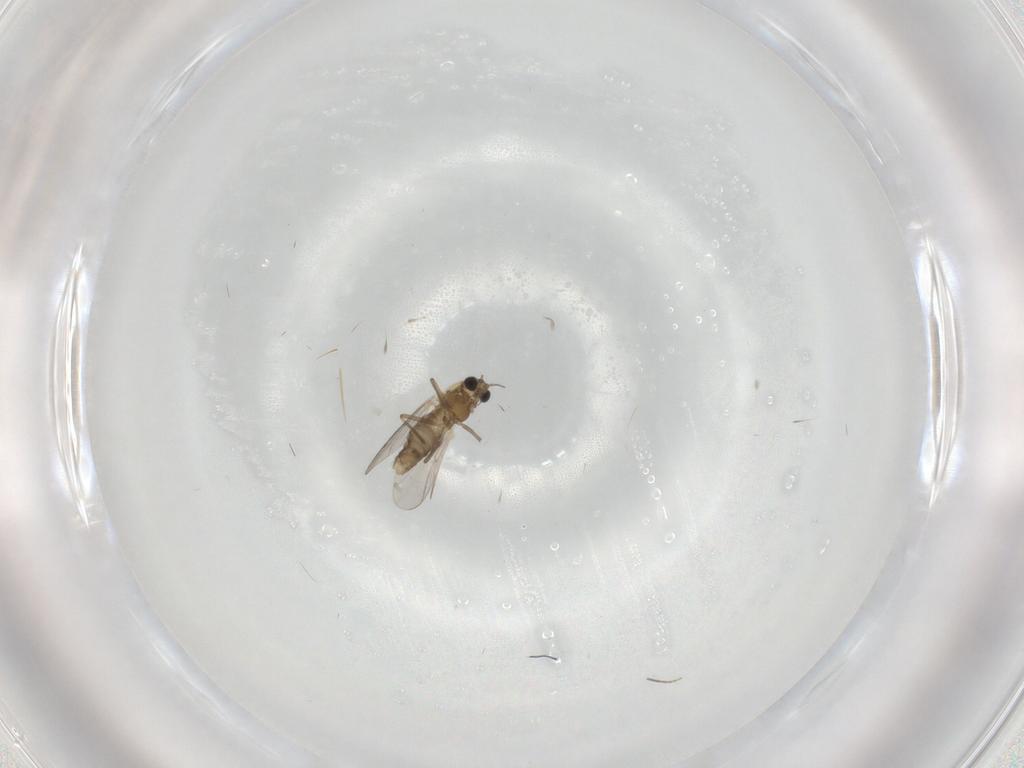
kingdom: Animalia
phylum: Arthropoda
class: Insecta
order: Diptera
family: Chironomidae
